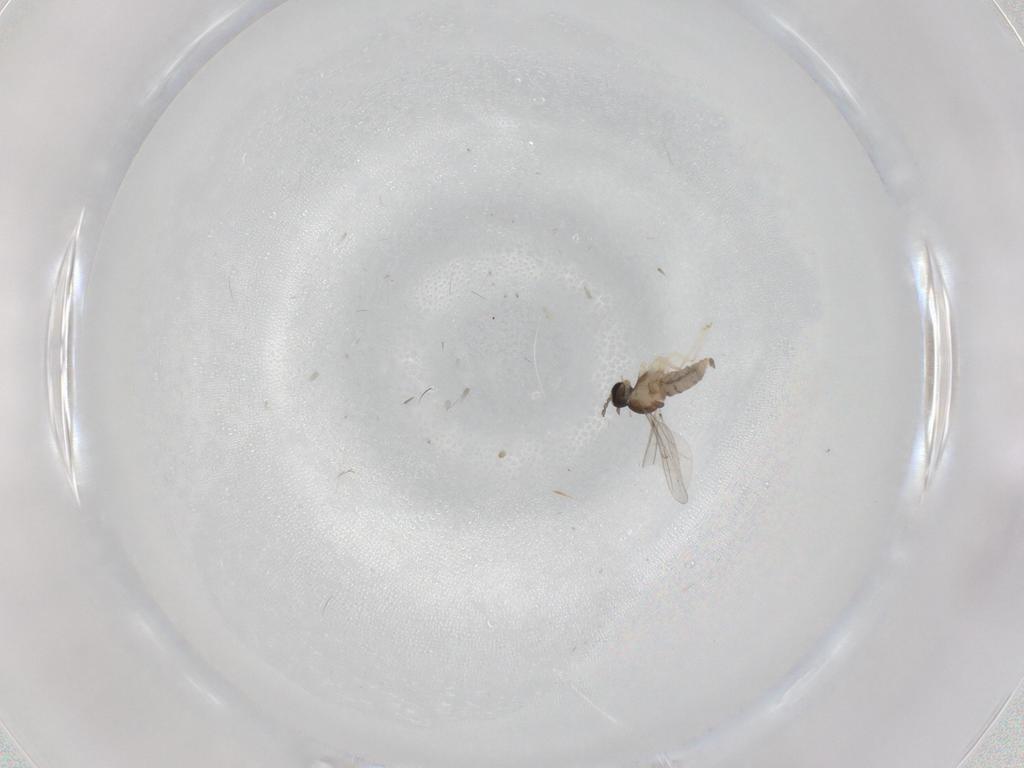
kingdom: Animalia
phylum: Arthropoda
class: Insecta
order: Diptera
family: Cecidomyiidae
